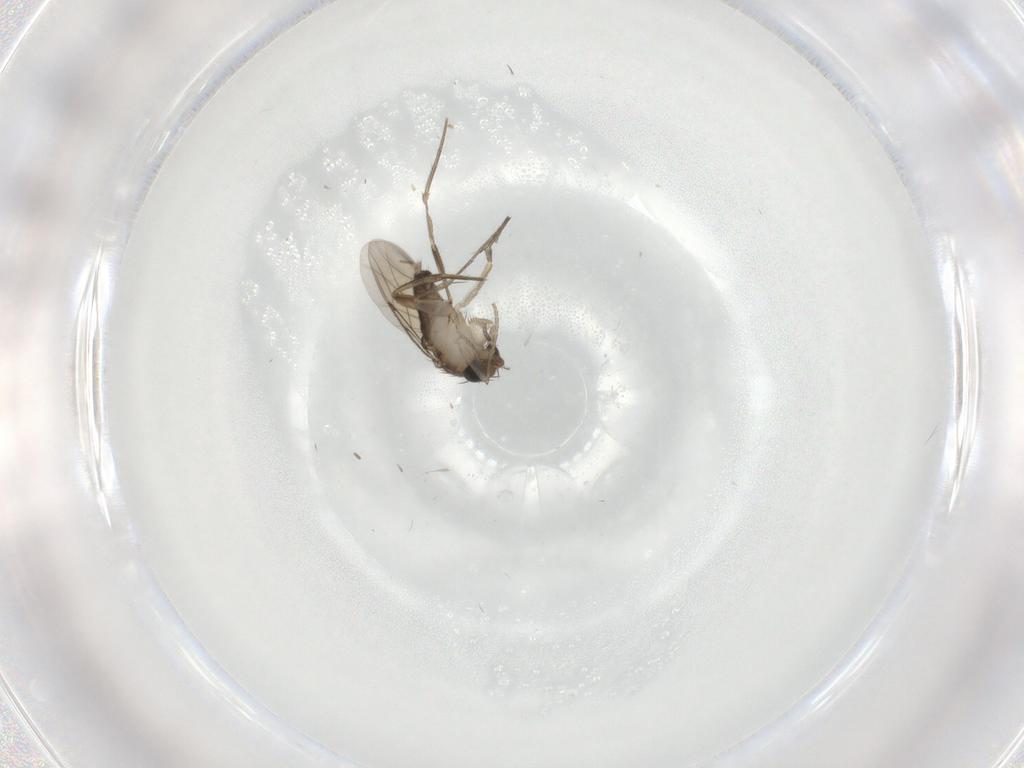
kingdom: Animalia
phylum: Arthropoda
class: Insecta
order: Diptera
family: Phoridae
